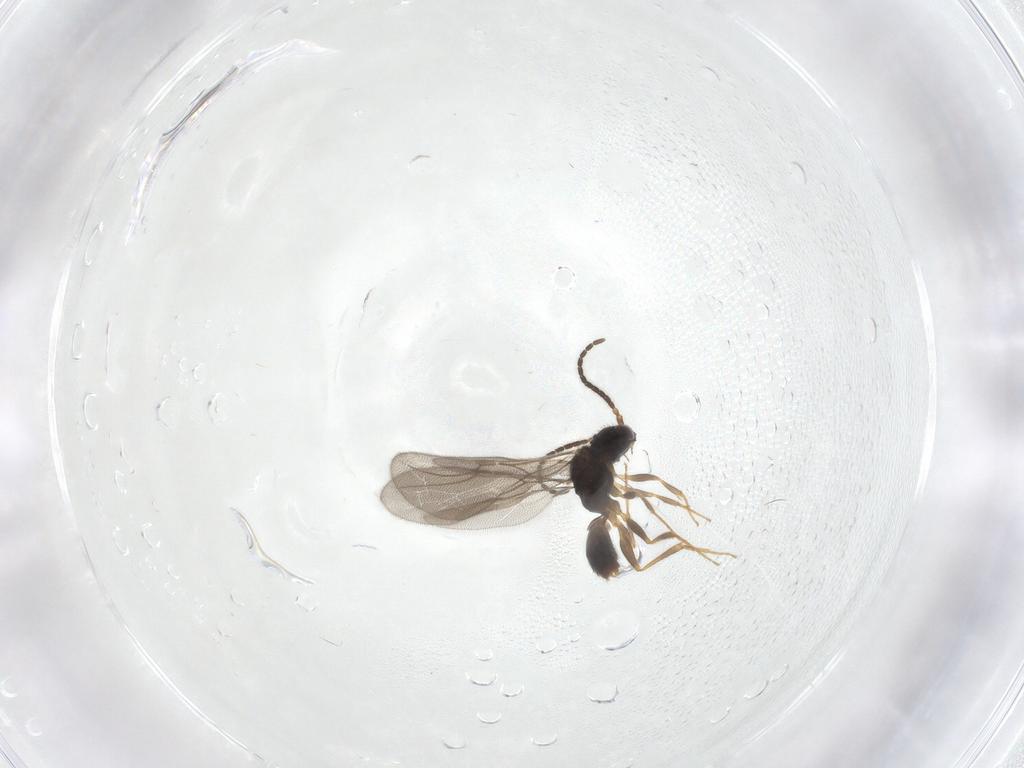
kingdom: Animalia
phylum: Arthropoda
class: Insecta
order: Hymenoptera
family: Bethylidae
